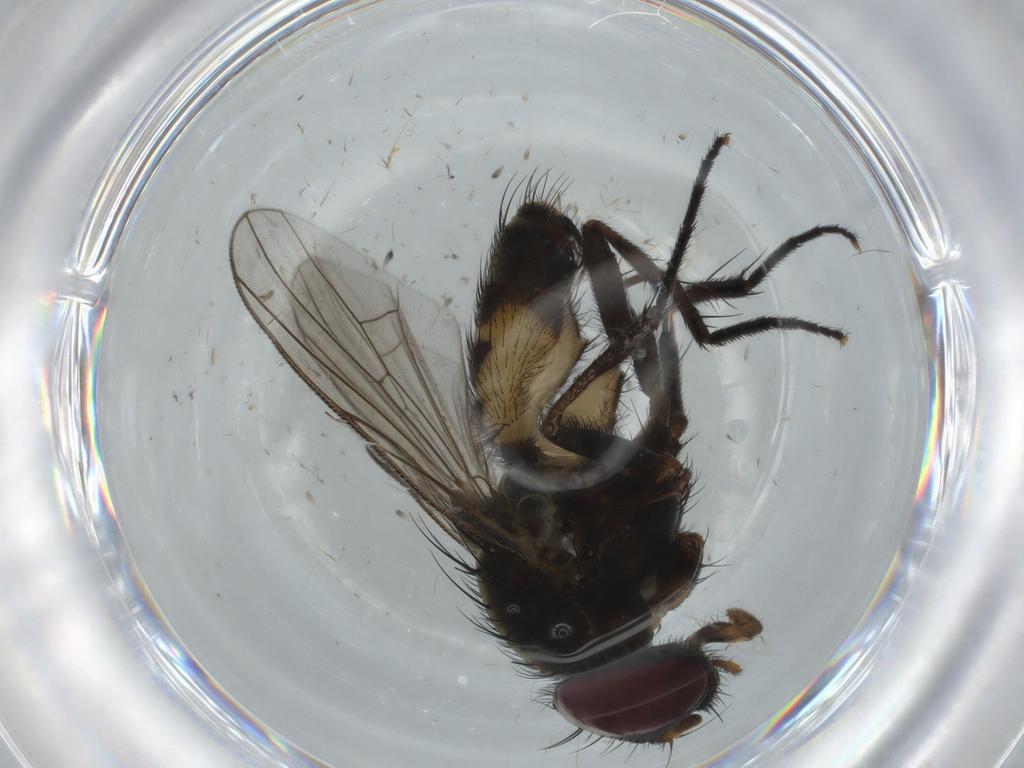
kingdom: Animalia
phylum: Arthropoda
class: Insecta
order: Diptera
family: Fannia
